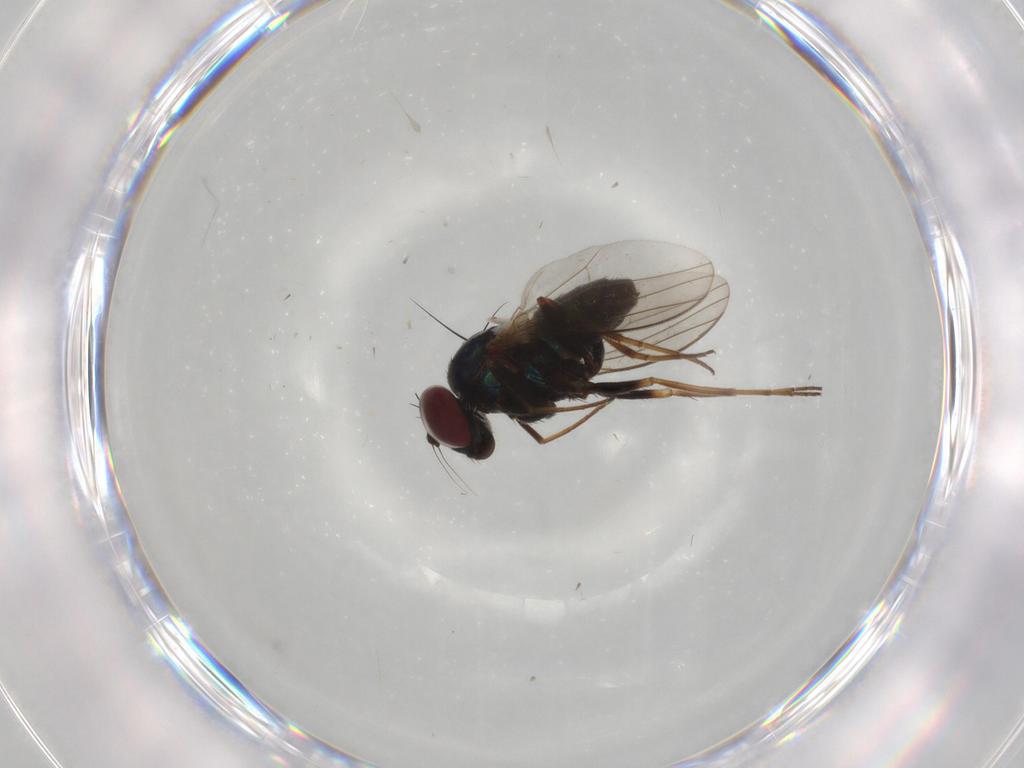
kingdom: Animalia
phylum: Arthropoda
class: Insecta
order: Diptera
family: Dolichopodidae
